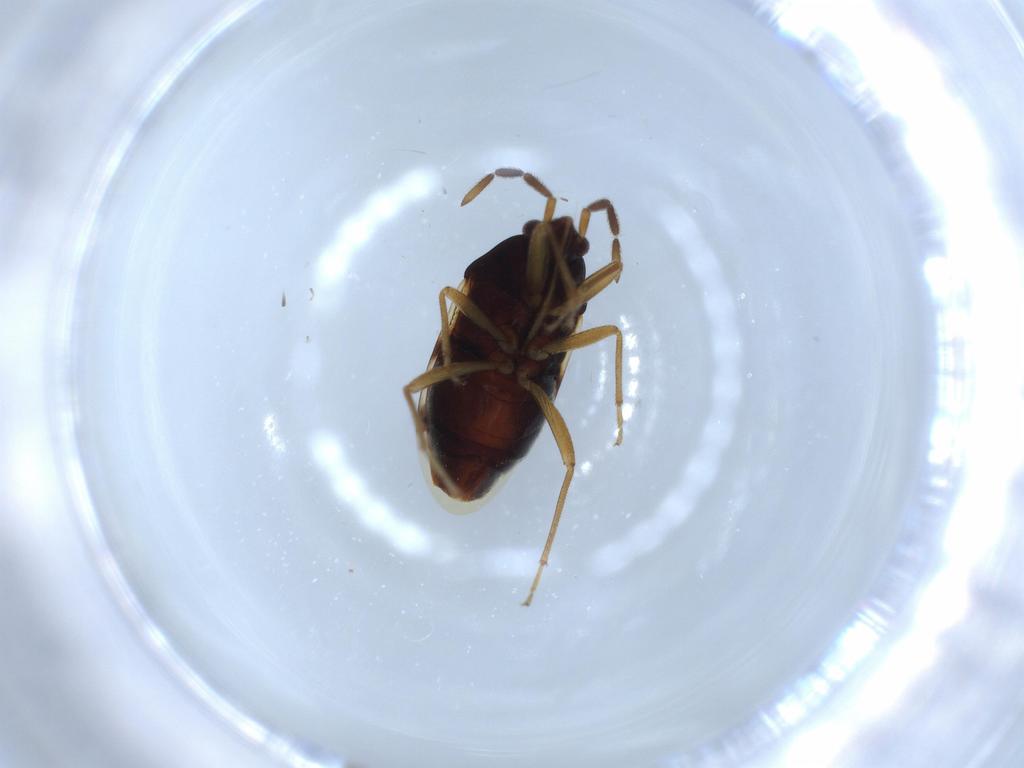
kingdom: Animalia
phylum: Arthropoda
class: Insecta
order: Hemiptera
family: Rhyparochromidae
